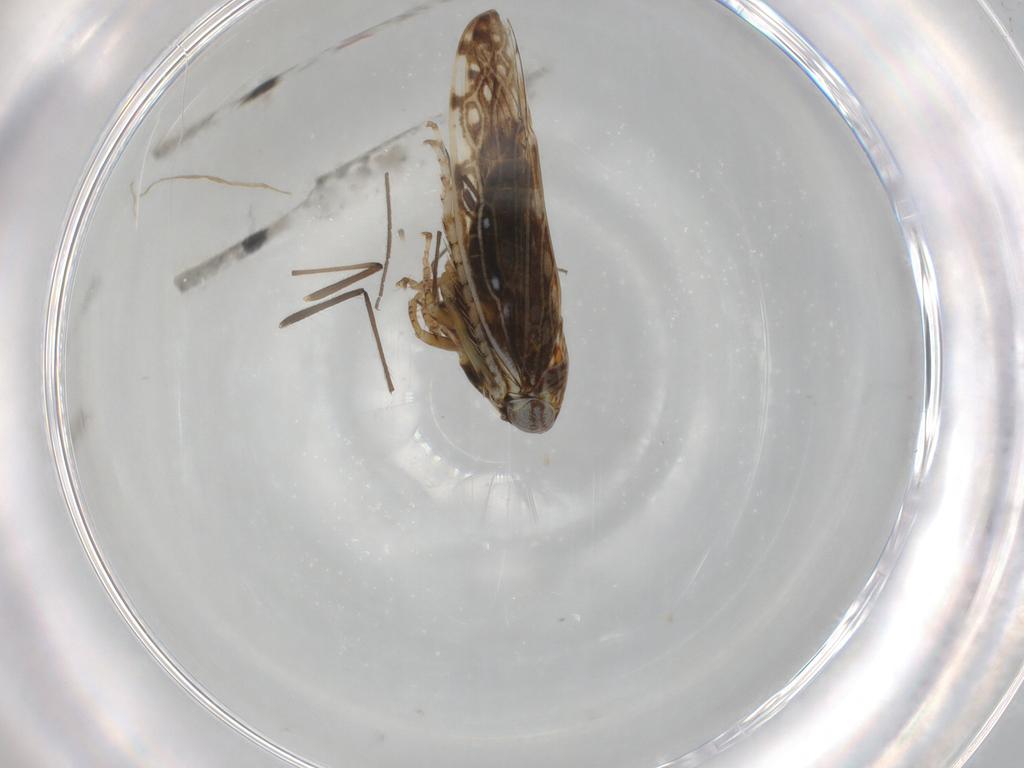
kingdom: Animalia
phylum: Arthropoda
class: Insecta
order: Hemiptera
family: Cicadellidae
